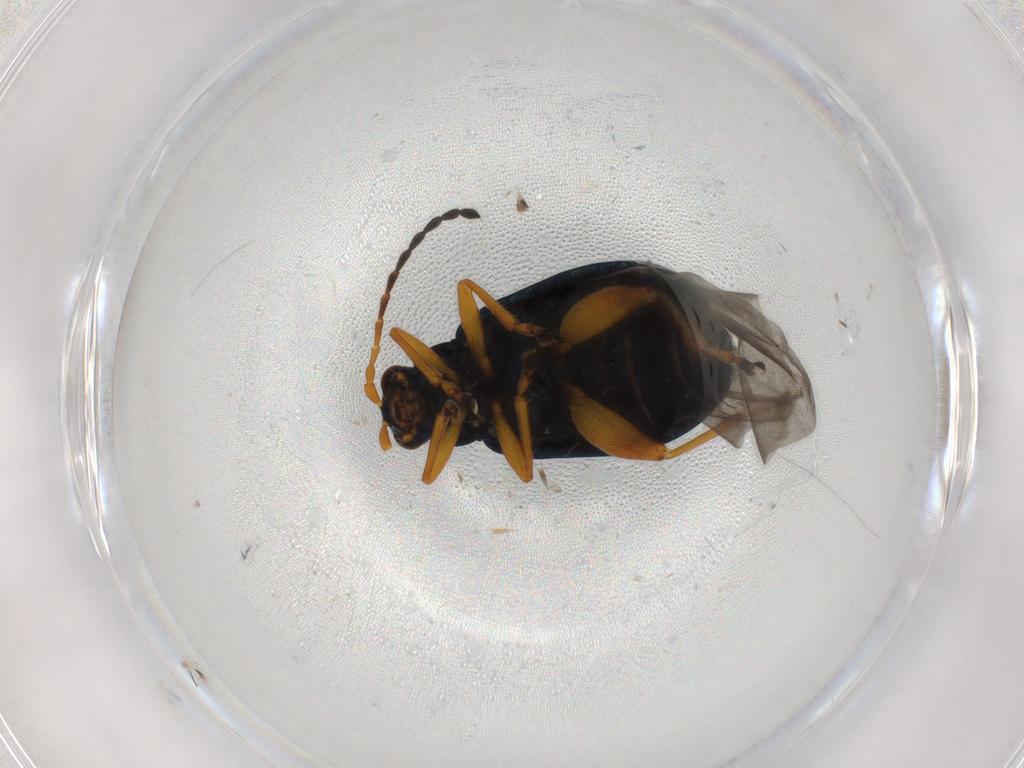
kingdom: Animalia
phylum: Arthropoda
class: Insecta
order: Coleoptera
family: Chrysomelidae
